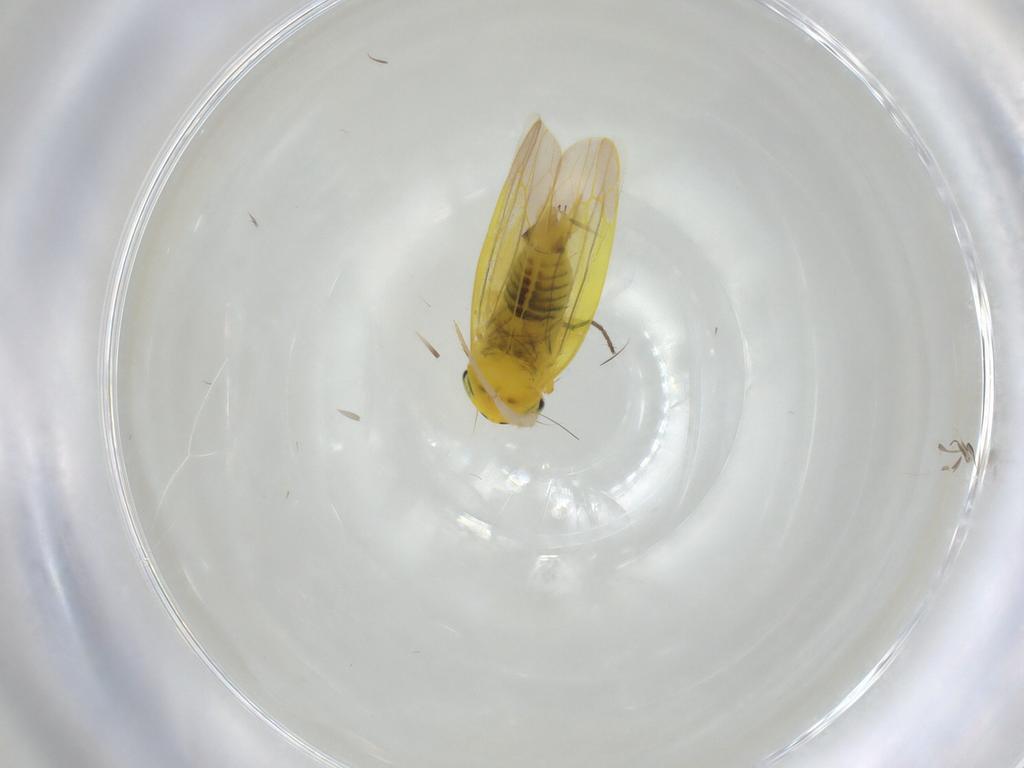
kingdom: Animalia
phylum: Arthropoda
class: Insecta
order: Hemiptera
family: Cicadellidae
